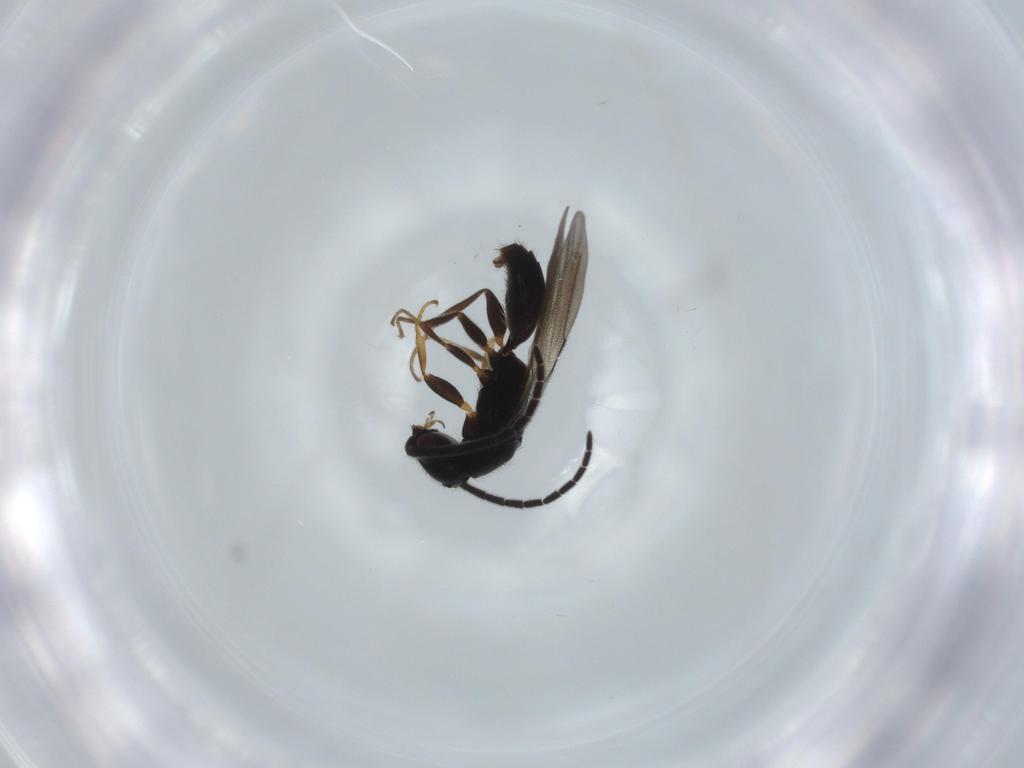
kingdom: Animalia
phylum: Arthropoda
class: Insecta
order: Hymenoptera
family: Bethylidae
